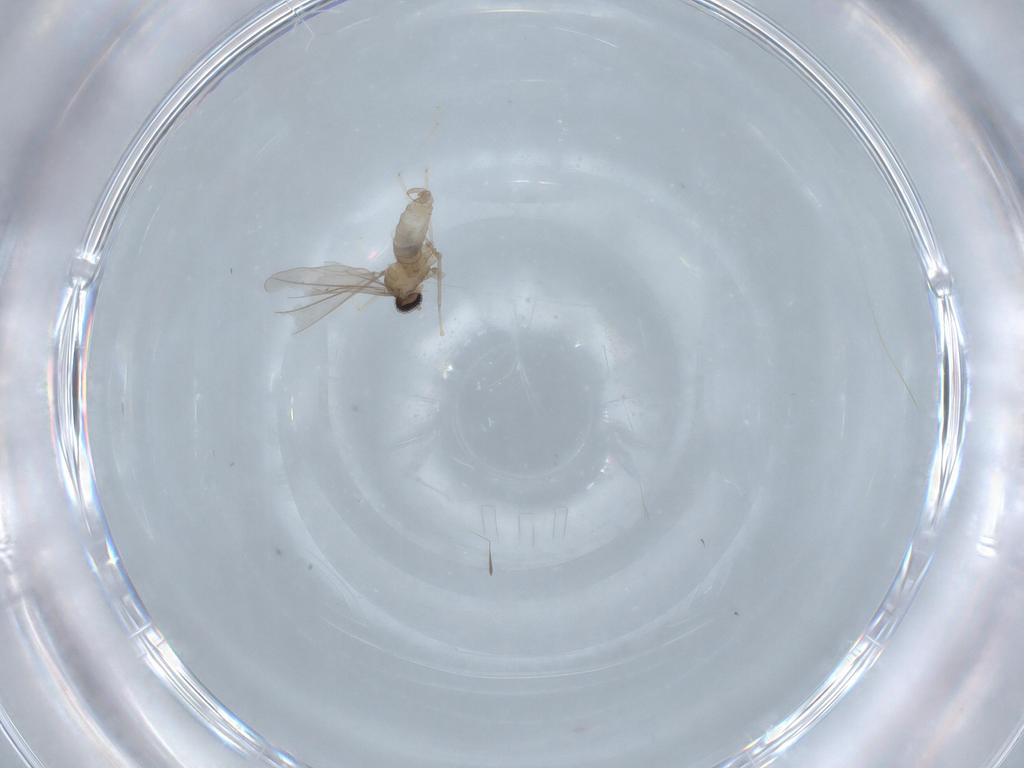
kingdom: Animalia
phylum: Arthropoda
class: Insecta
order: Diptera
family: Cecidomyiidae
